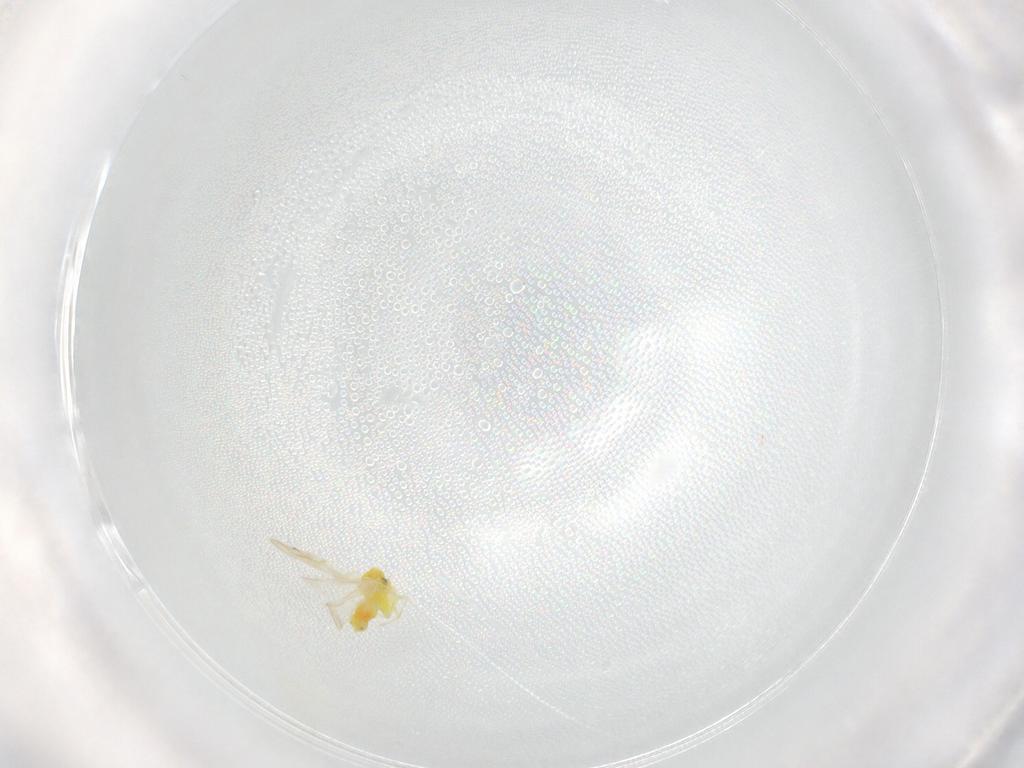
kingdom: Animalia
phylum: Arthropoda
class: Insecta
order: Hemiptera
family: Aleyrodidae
